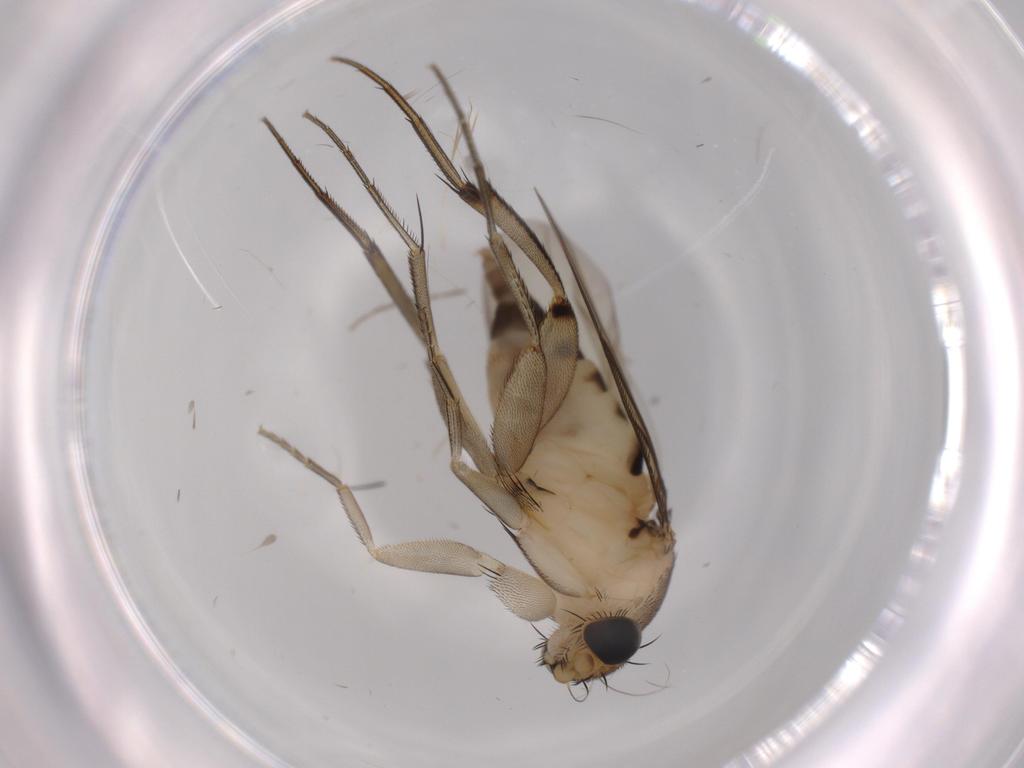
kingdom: Animalia
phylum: Arthropoda
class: Insecta
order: Diptera
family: Phoridae
